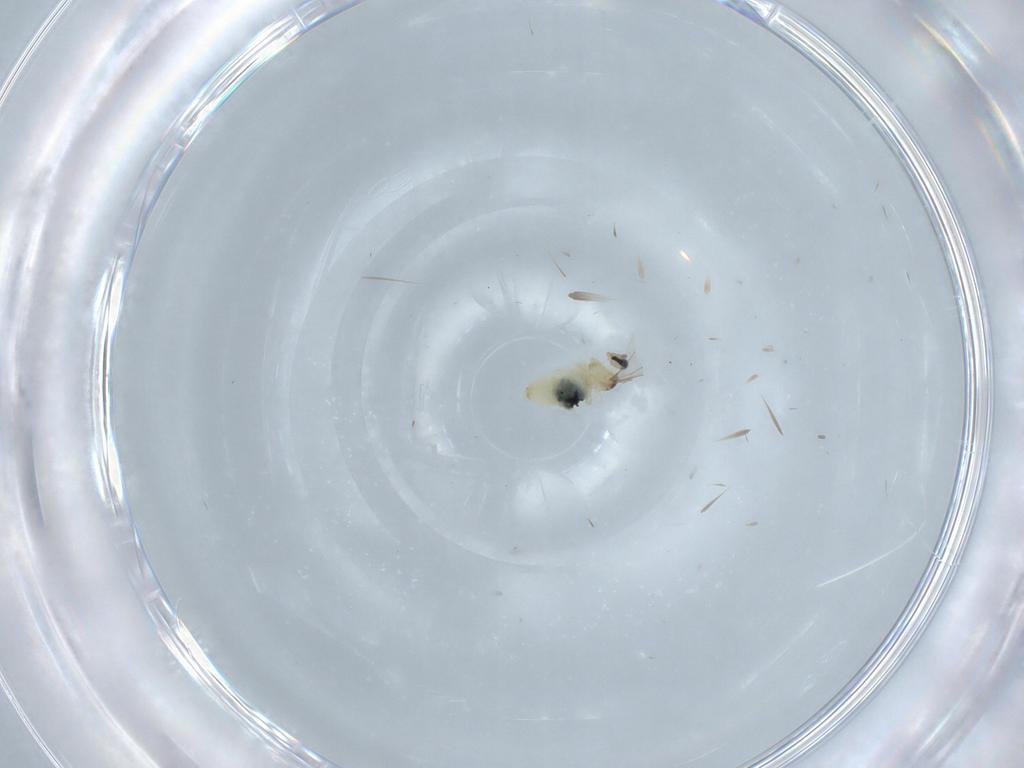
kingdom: Animalia
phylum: Arthropoda
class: Insecta
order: Diptera
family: Cecidomyiidae
